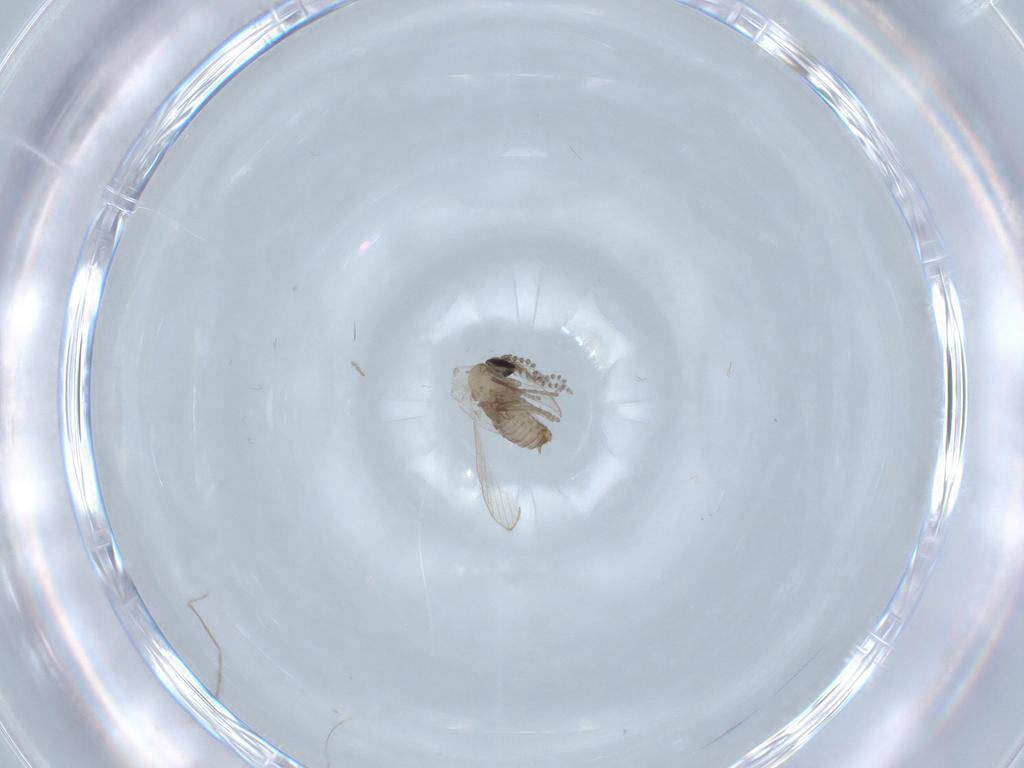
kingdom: Animalia
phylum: Arthropoda
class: Insecta
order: Diptera
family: Psychodidae
